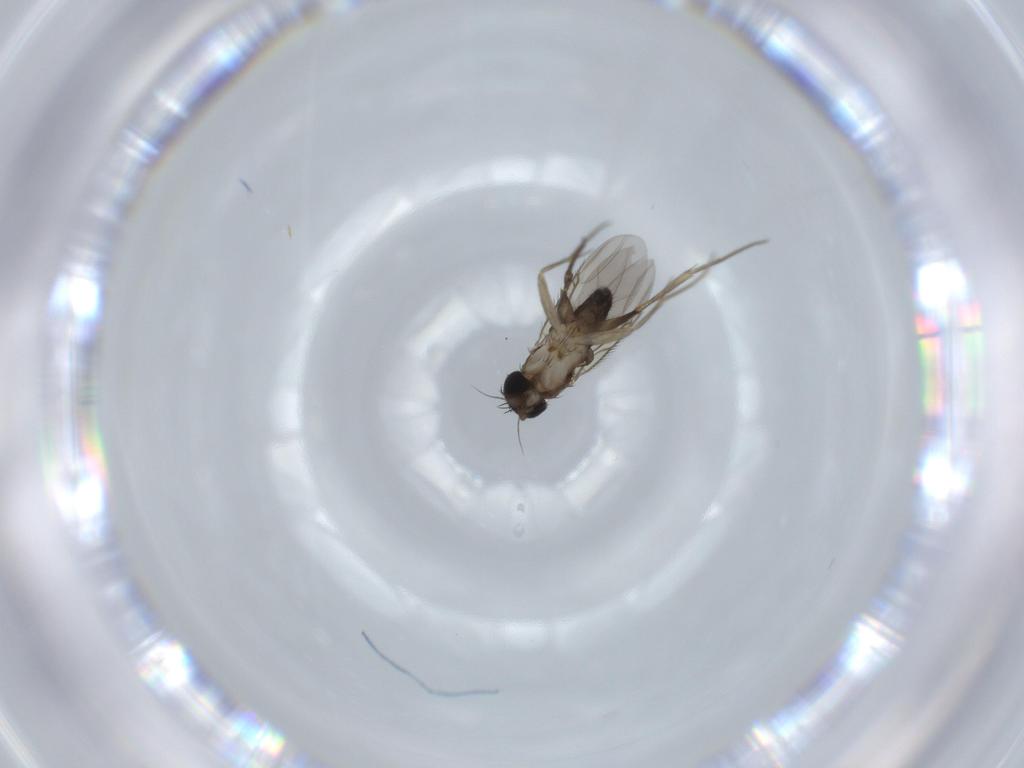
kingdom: Animalia
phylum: Arthropoda
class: Insecta
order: Diptera
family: Phoridae
